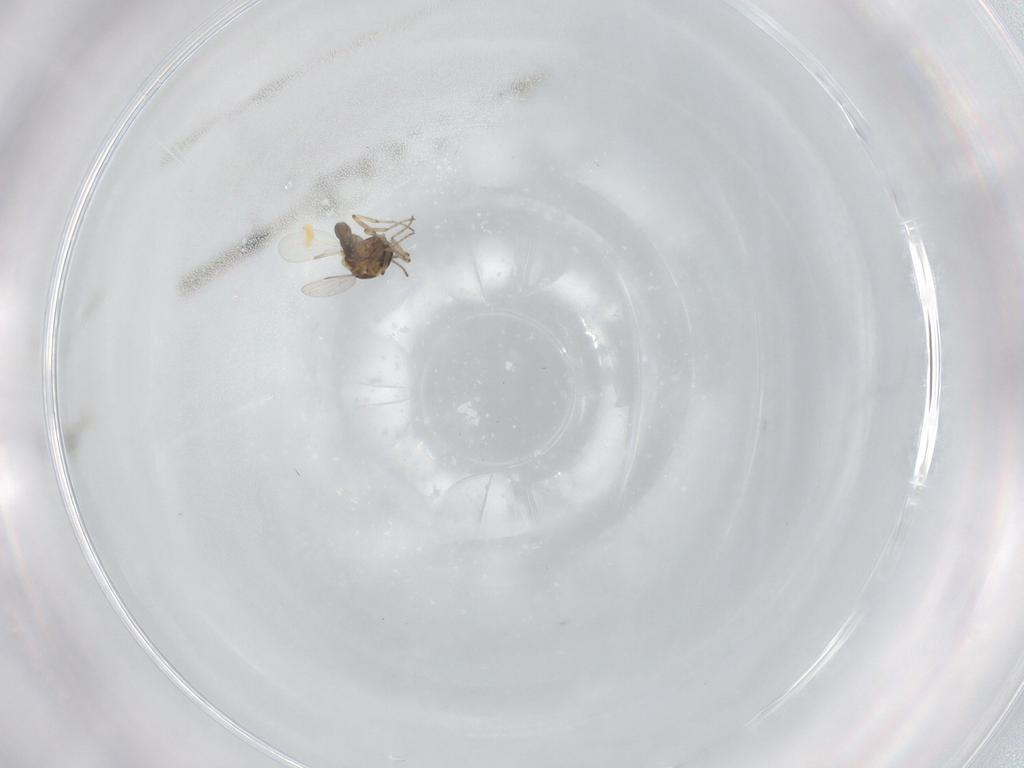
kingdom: Animalia
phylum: Arthropoda
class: Insecta
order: Diptera
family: Ceratopogonidae
